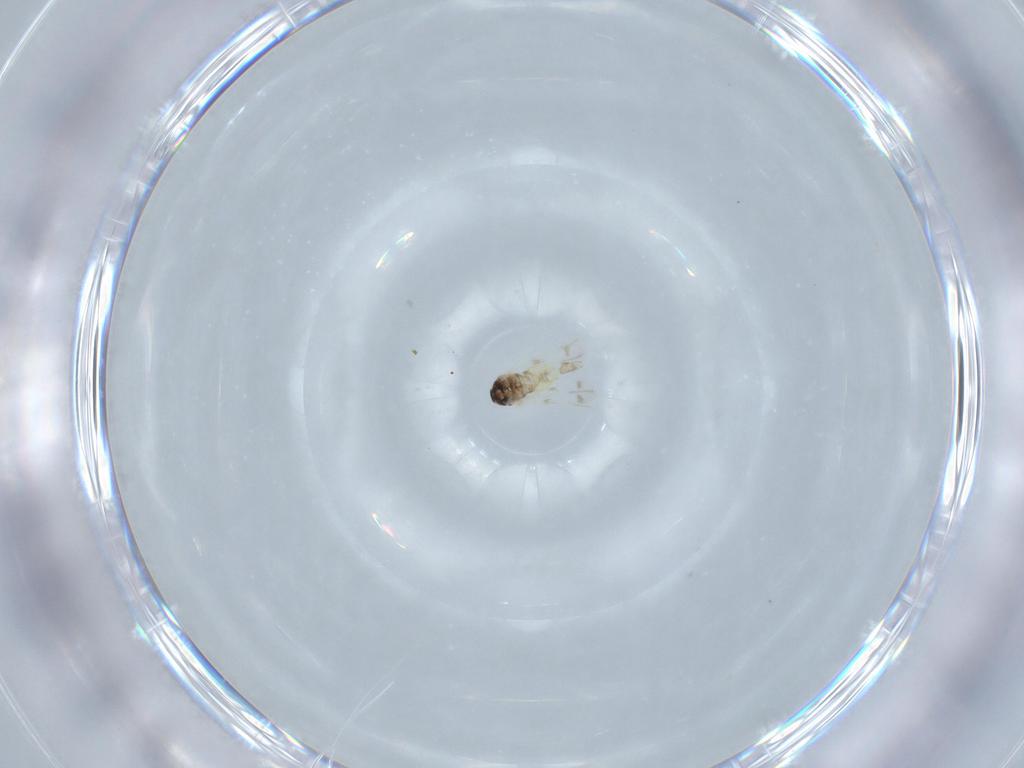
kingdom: Animalia
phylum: Arthropoda
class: Insecta
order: Hemiptera
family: Aleyrodidae
